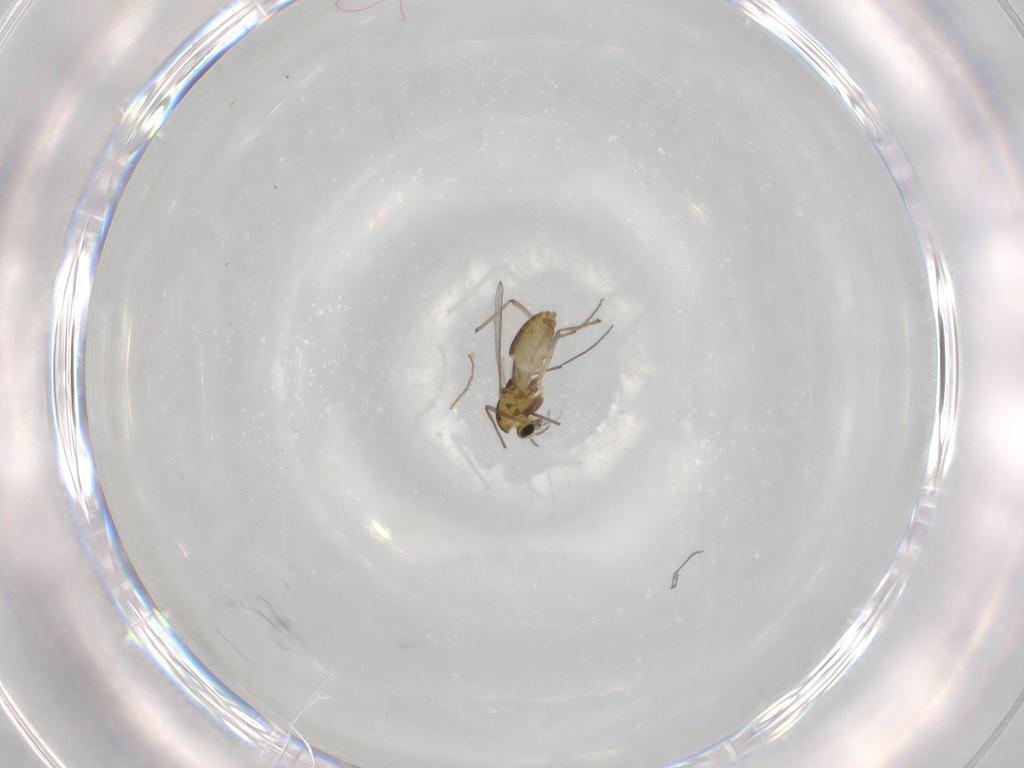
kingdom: Animalia
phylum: Arthropoda
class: Insecta
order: Diptera
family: Chironomidae
